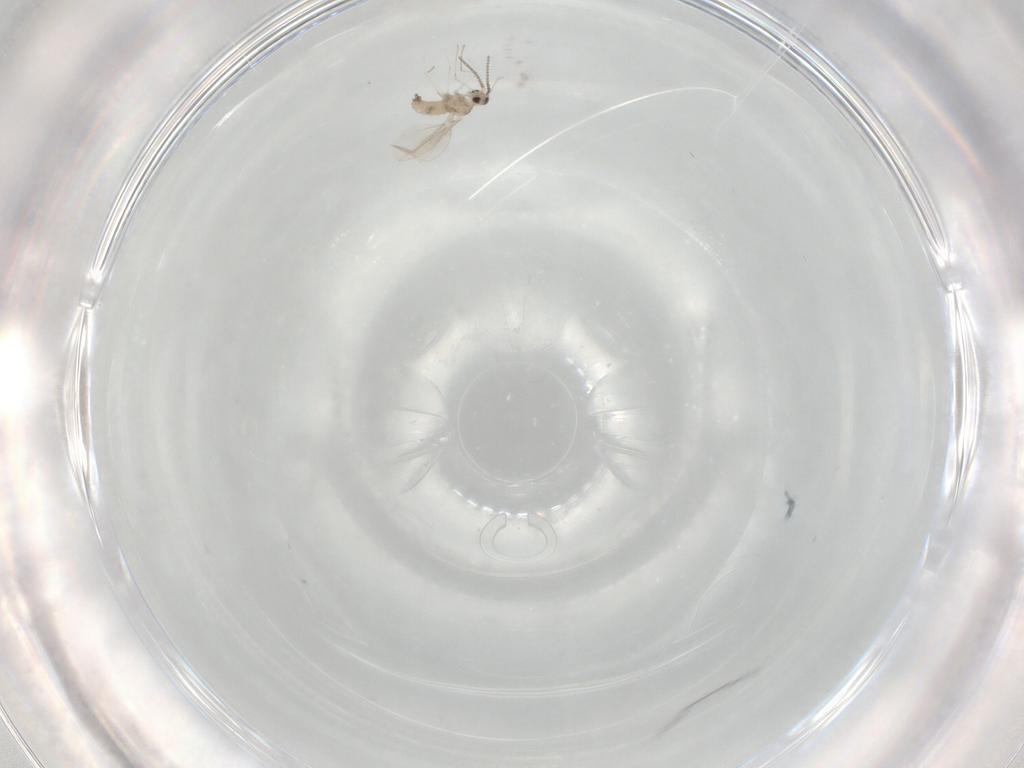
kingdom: Animalia
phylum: Arthropoda
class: Insecta
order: Diptera
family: Cecidomyiidae
